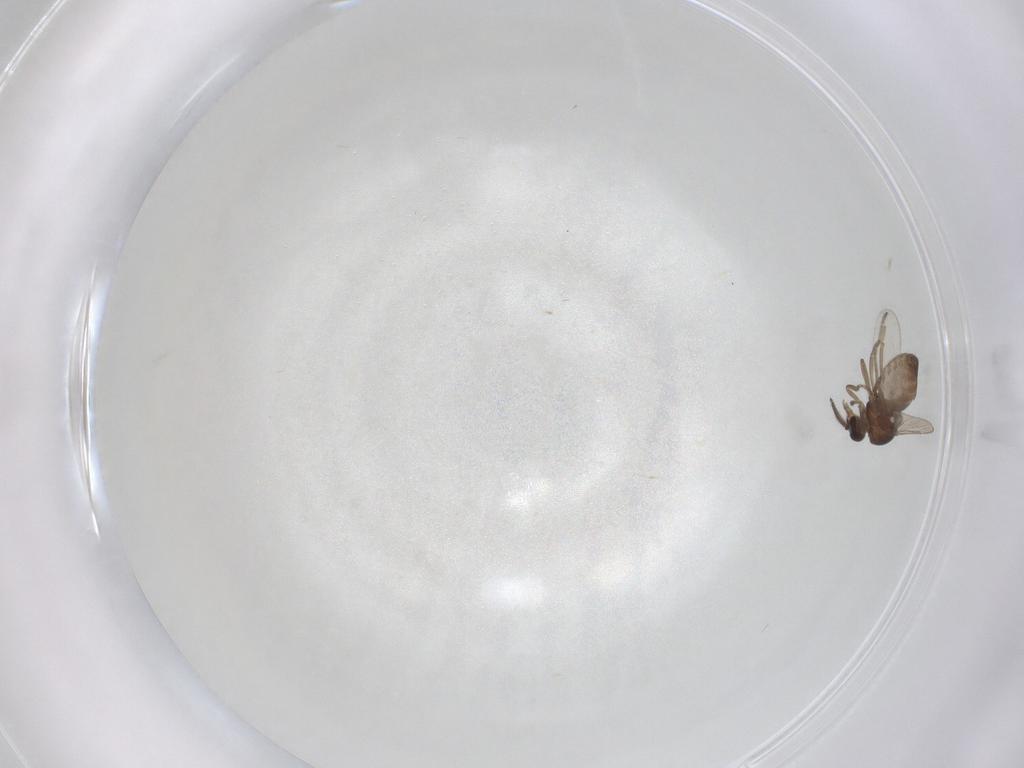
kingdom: Animalia
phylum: Arthropoda
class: Insecta
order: Diptera
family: Ceratopogonidae
